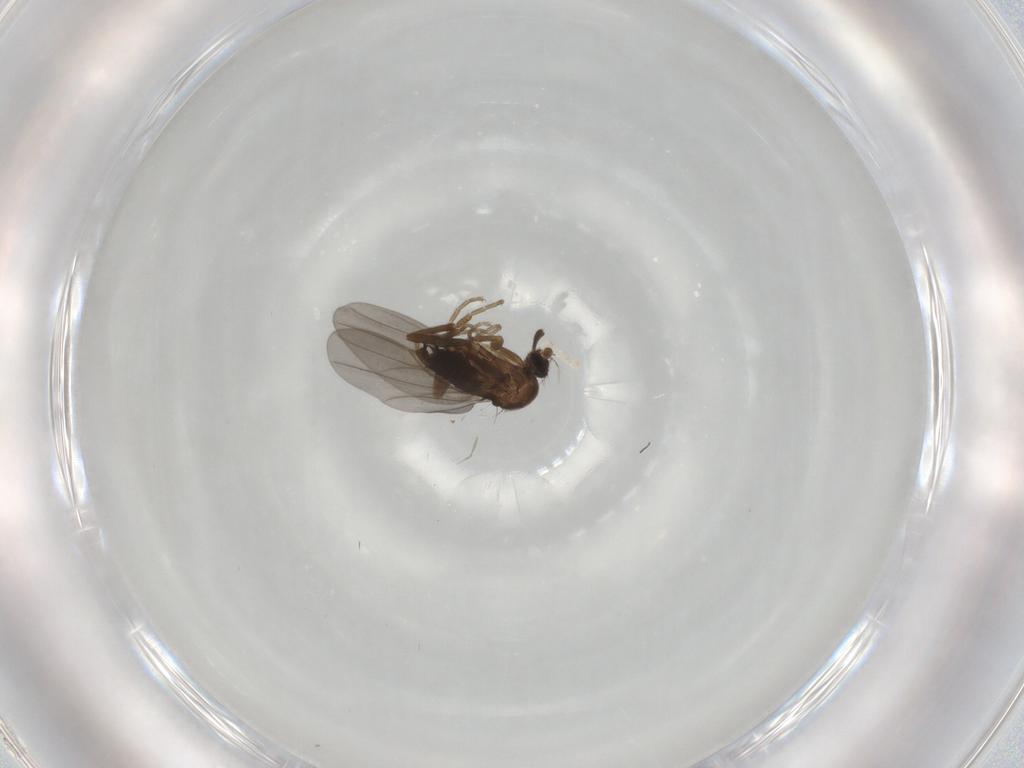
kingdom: Animalia
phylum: Arthropoda
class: Insecta
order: Diptera
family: Phoridae
